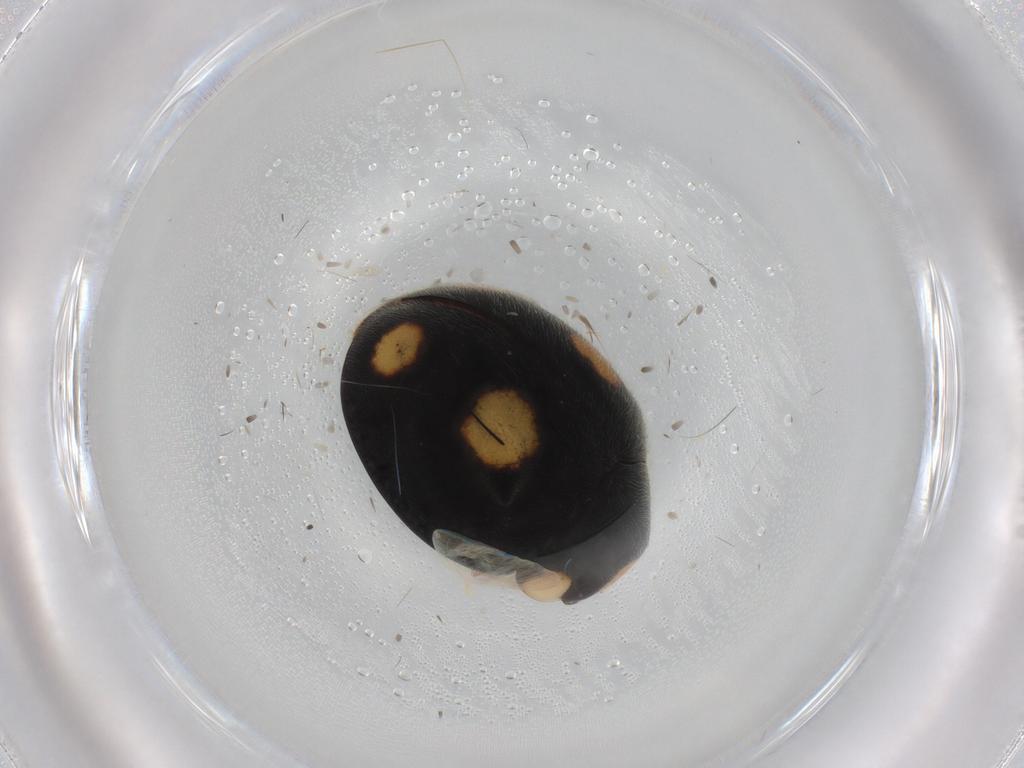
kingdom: Animalia
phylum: Arthropoda
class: Insecta
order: Coleoptera
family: Coccinellidae
